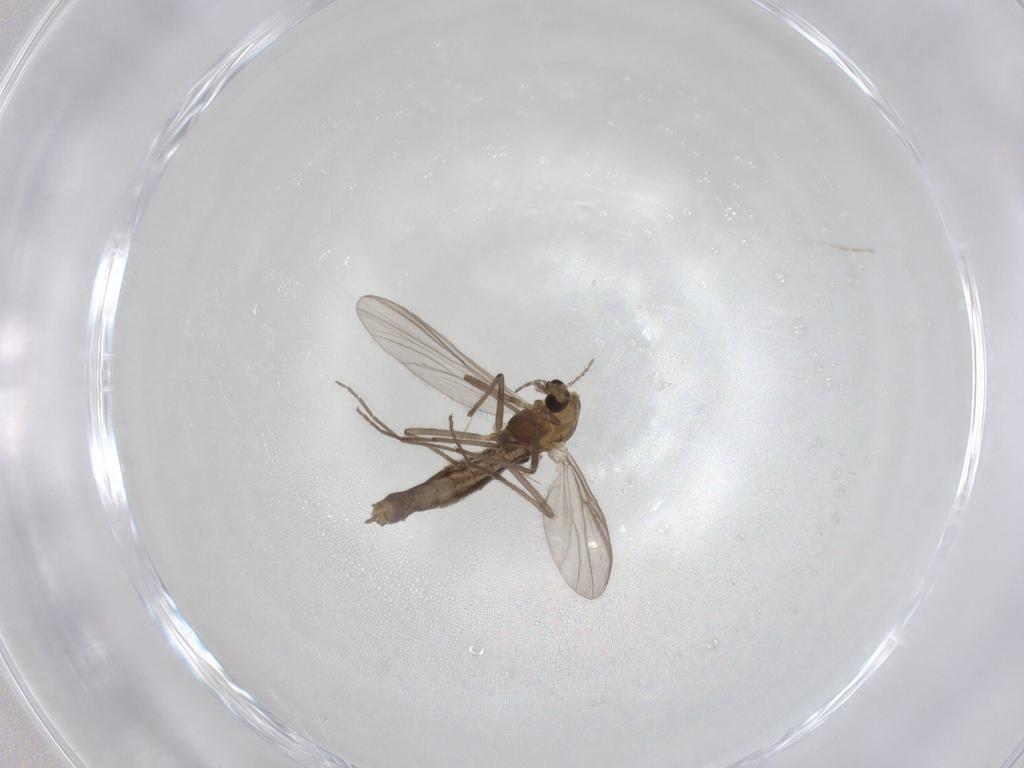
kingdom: Animalia
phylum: Arthropoda
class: Insecta
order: Diptera
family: Chironomidae
